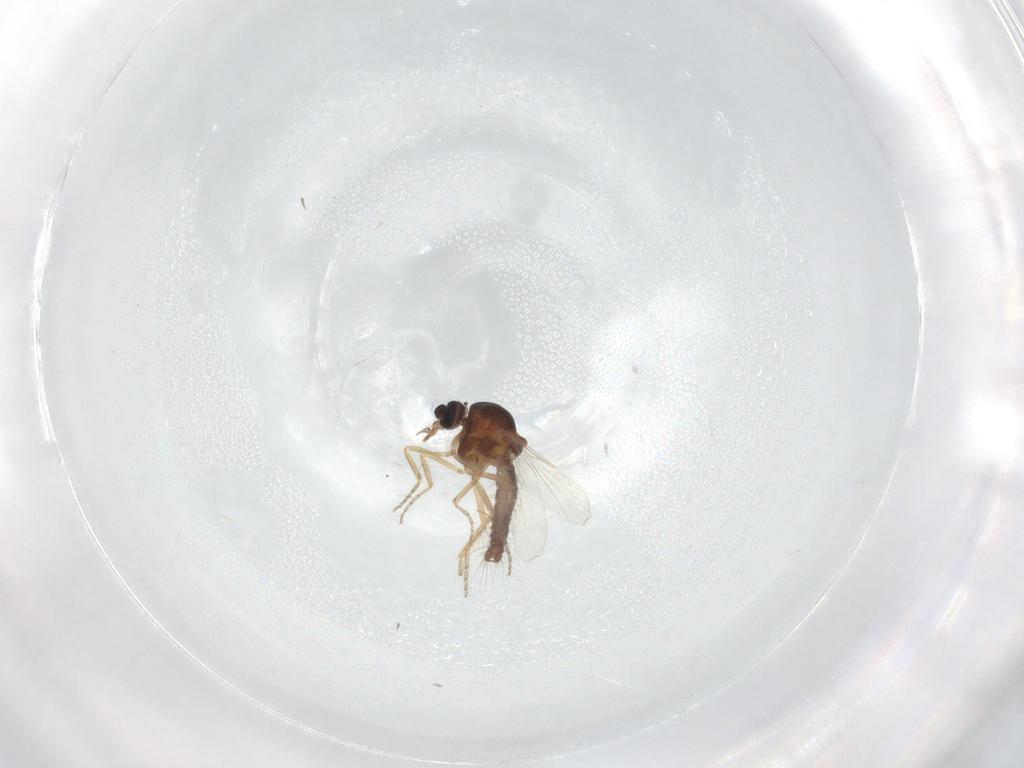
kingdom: Animalia
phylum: Arthropoda
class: Insecta
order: Diptera
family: Ceratopogonidae
